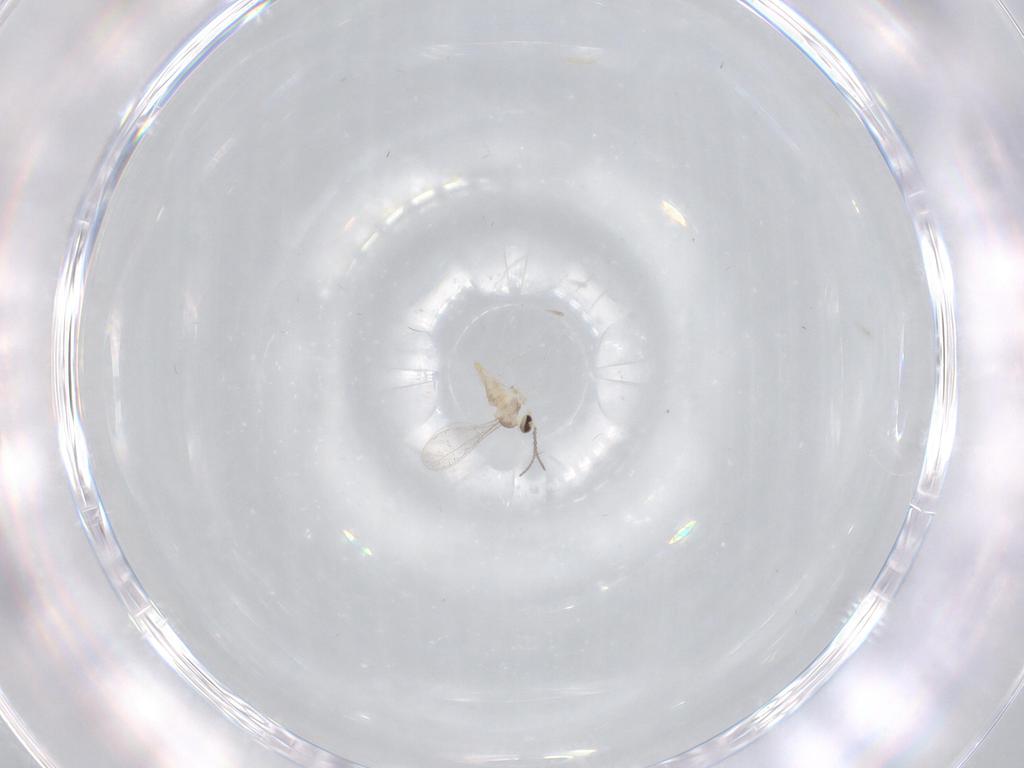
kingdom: Animalia
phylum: Arthropoda
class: Insecta
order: Diptera
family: Cecidomyiidae
